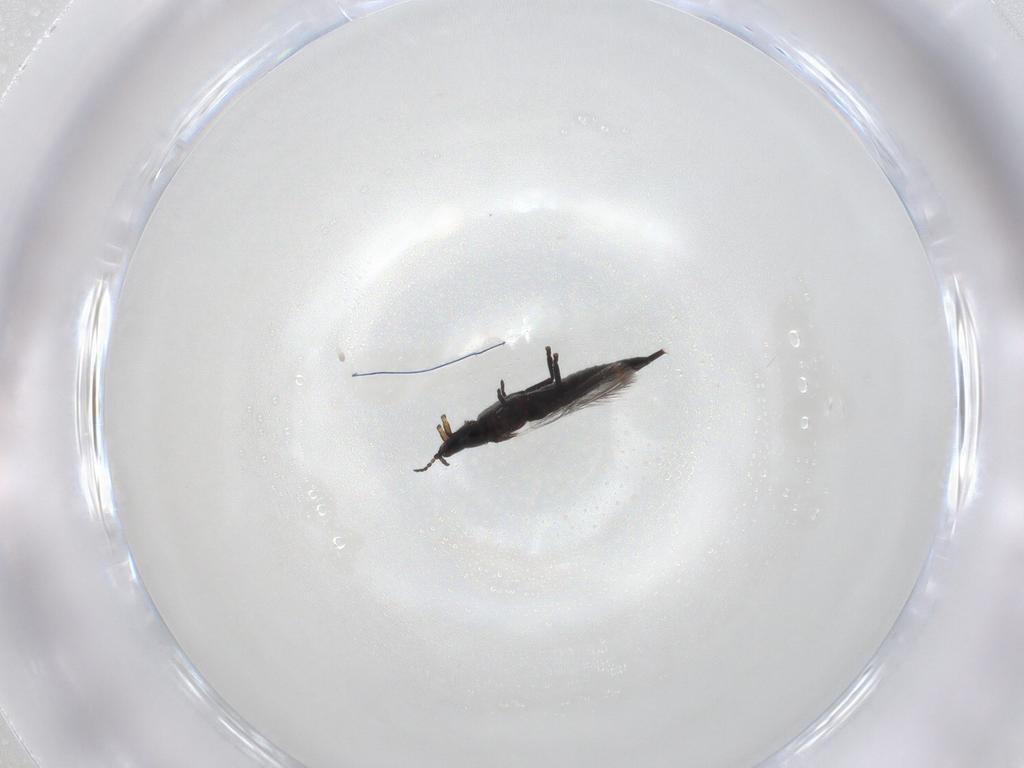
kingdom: Animalia
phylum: Arthropoda
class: Insecta
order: Thysanoptera
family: Phlaeothripidae
